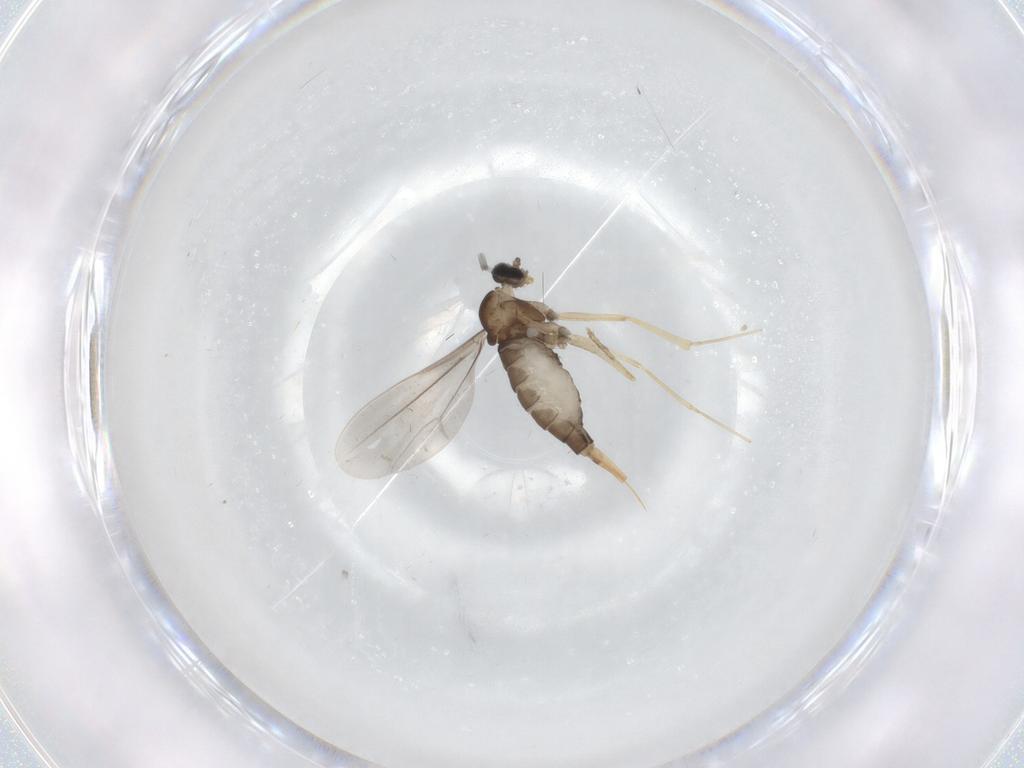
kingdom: Animalia
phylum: Arthropoda
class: Insecta
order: Diptera
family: Cecidomyiidae
